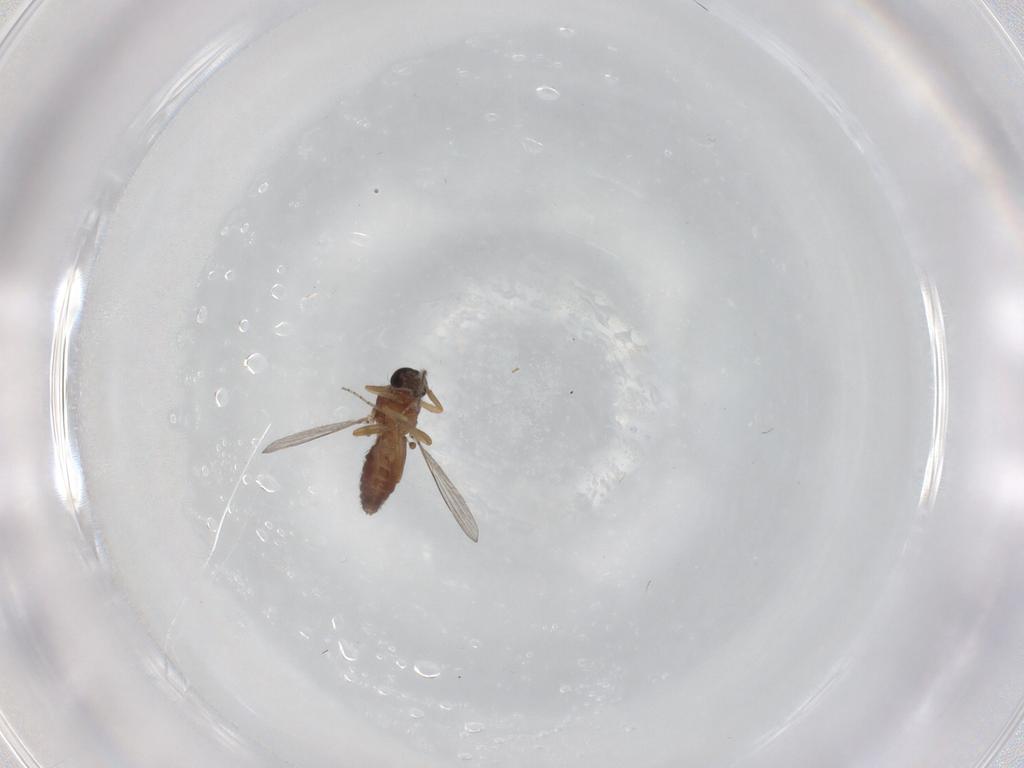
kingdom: Animalia
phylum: Arthropoda
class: Insecta
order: Diptera
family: Ceratopogonidae
